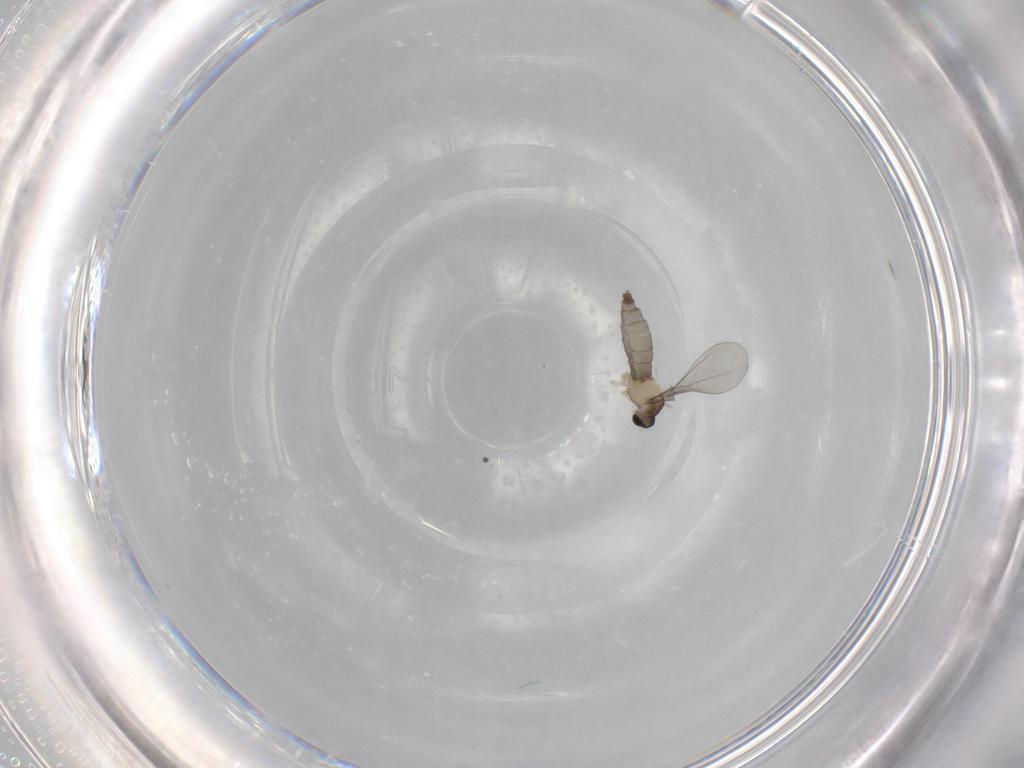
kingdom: Animalia
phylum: Arthropoda
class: Insecta
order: Diptera
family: Cecidomyiidae
